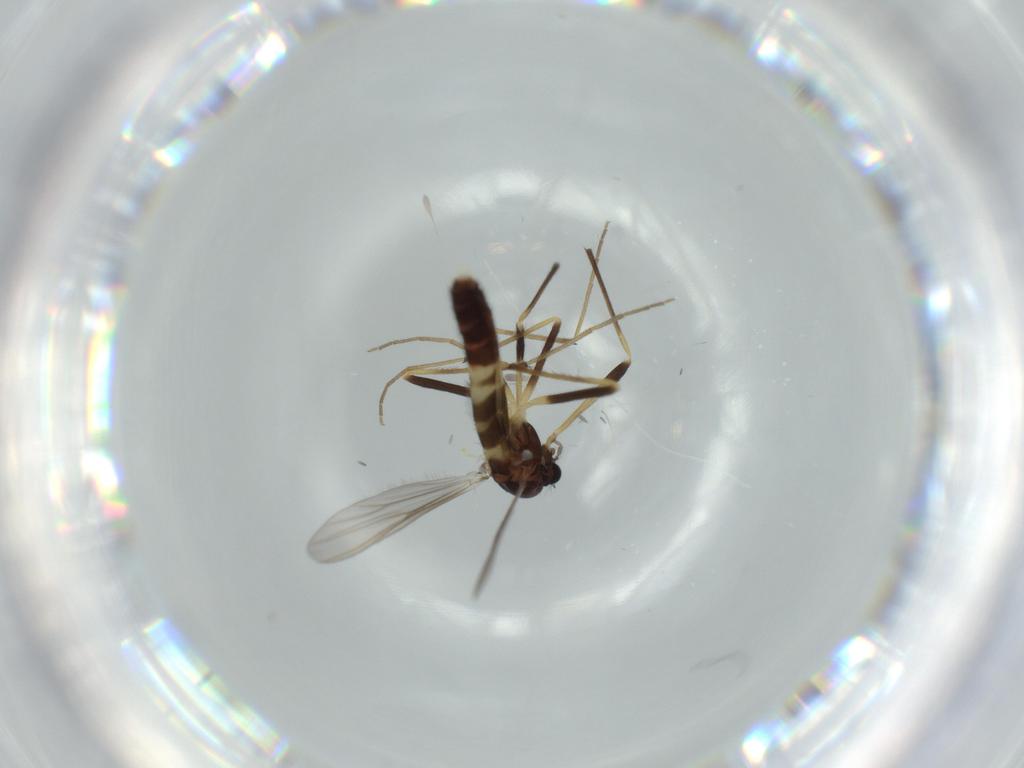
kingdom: Animalia
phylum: Arthropoda
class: Insecta
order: Diptera
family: Chironomidae
